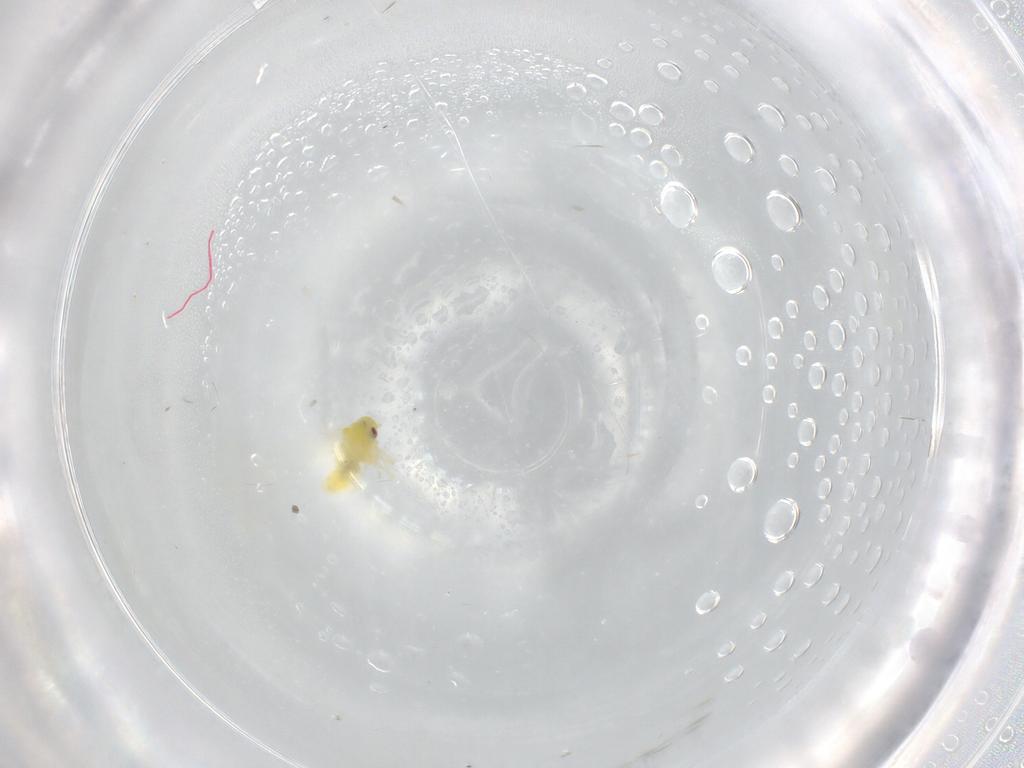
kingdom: Animalia
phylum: Arthropoda
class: Insecta
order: Hemiptera
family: Aleyrodidae
